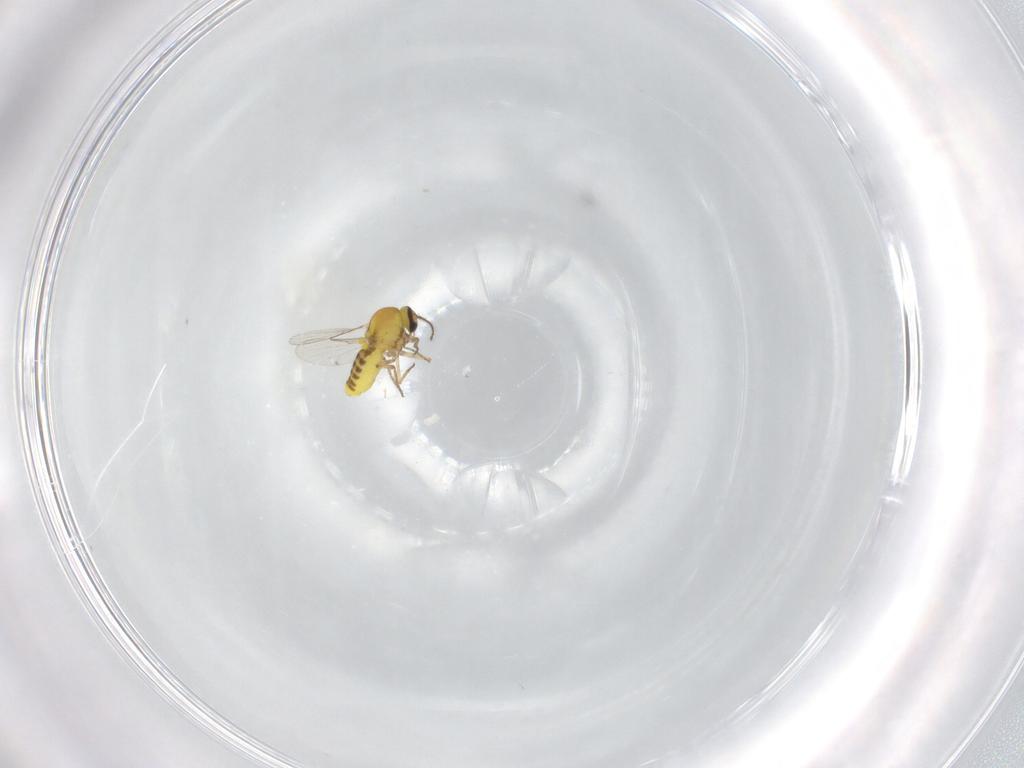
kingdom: Animalia
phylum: Arthropoda
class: Insecta
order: Diptera
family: Ceratopogonidae
